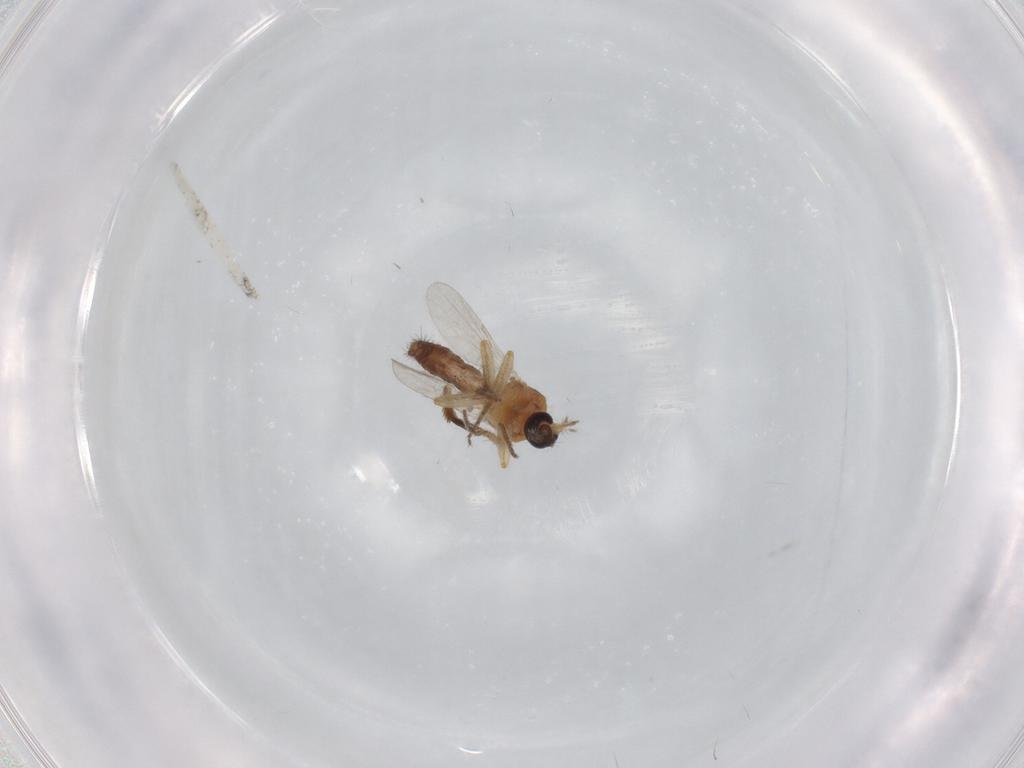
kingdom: Animalia
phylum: Arthropoda
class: Insecta
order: Diptera
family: Ceratopogonidae
